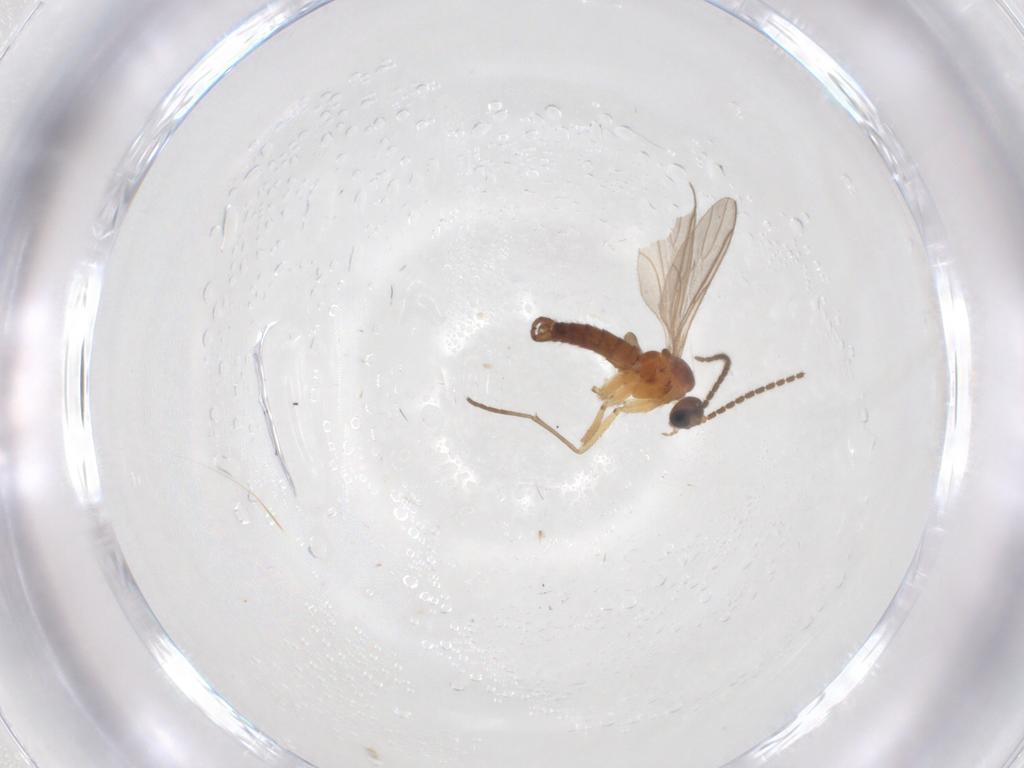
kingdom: Animalia
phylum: Arthropoda
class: Insecta
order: Diptera
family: Sciaridae
